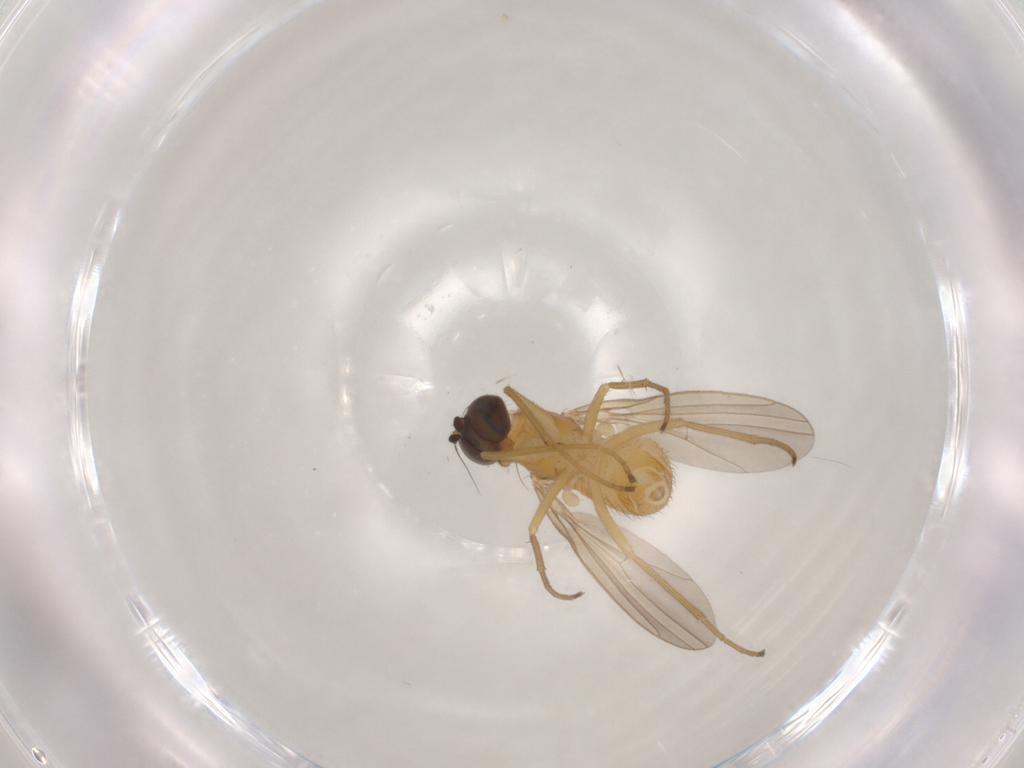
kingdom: Animalia
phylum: Arthropoda
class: Insecta
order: Diptera
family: Dolichopodidae
